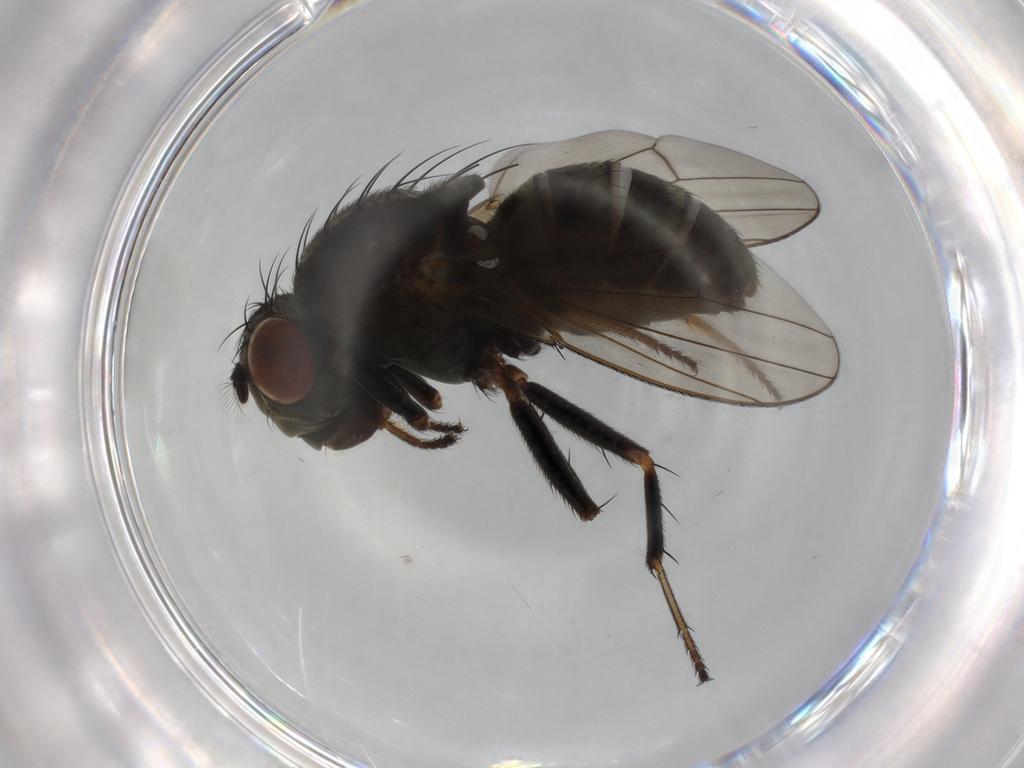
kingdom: Animalia
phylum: Arthropoda
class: Insecta
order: Diptera
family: Ephydridae
